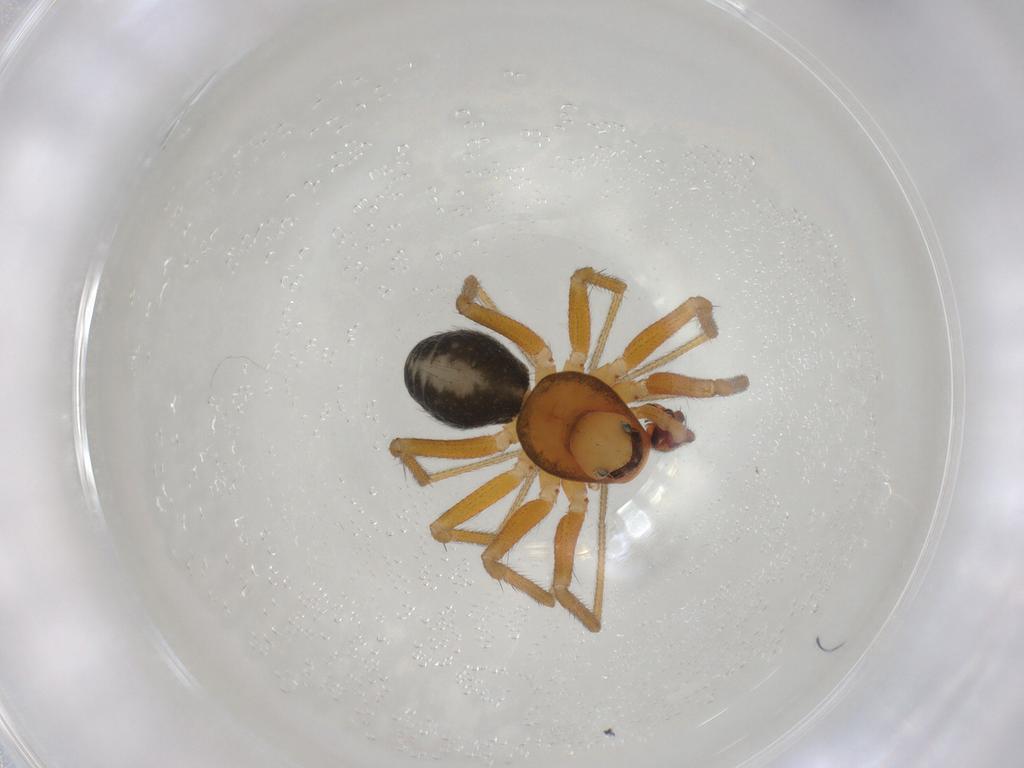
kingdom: Animalia
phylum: Arthropoda
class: Arachnida
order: Araneae
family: Linyphiidae
